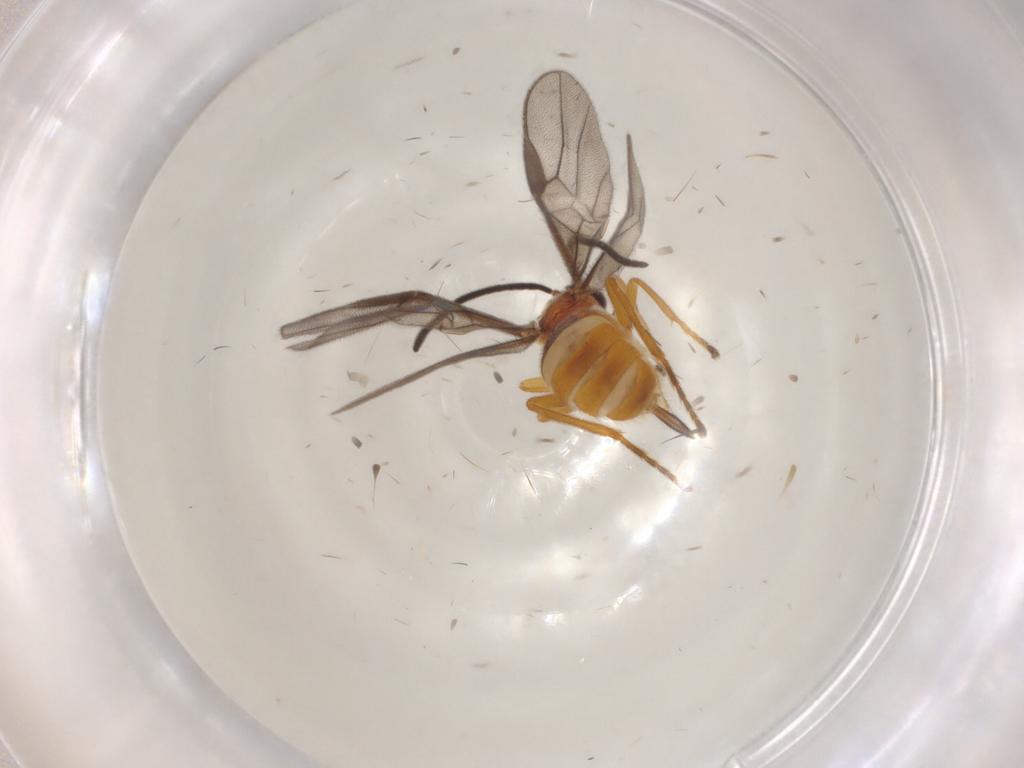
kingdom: Animalia
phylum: Arthropoda
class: Insecta
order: Hymenoptera
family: Braconidae
